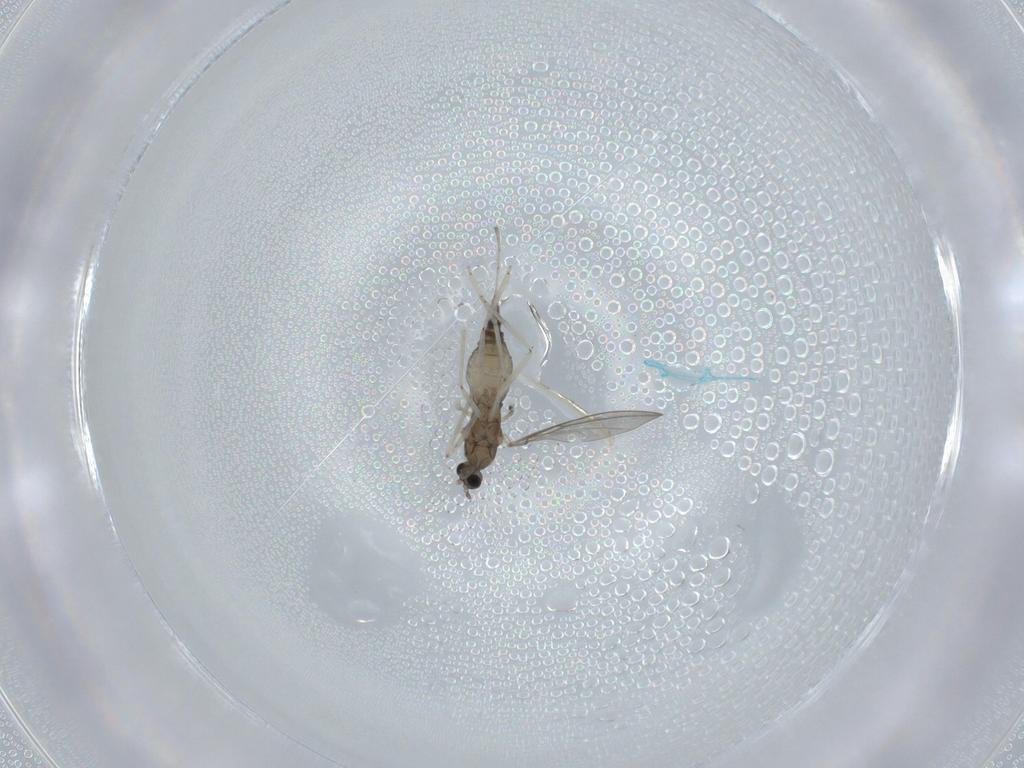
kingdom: Animalia
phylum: Arthropoda
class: Insecta
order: Diptera
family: Cecidomyiidae
